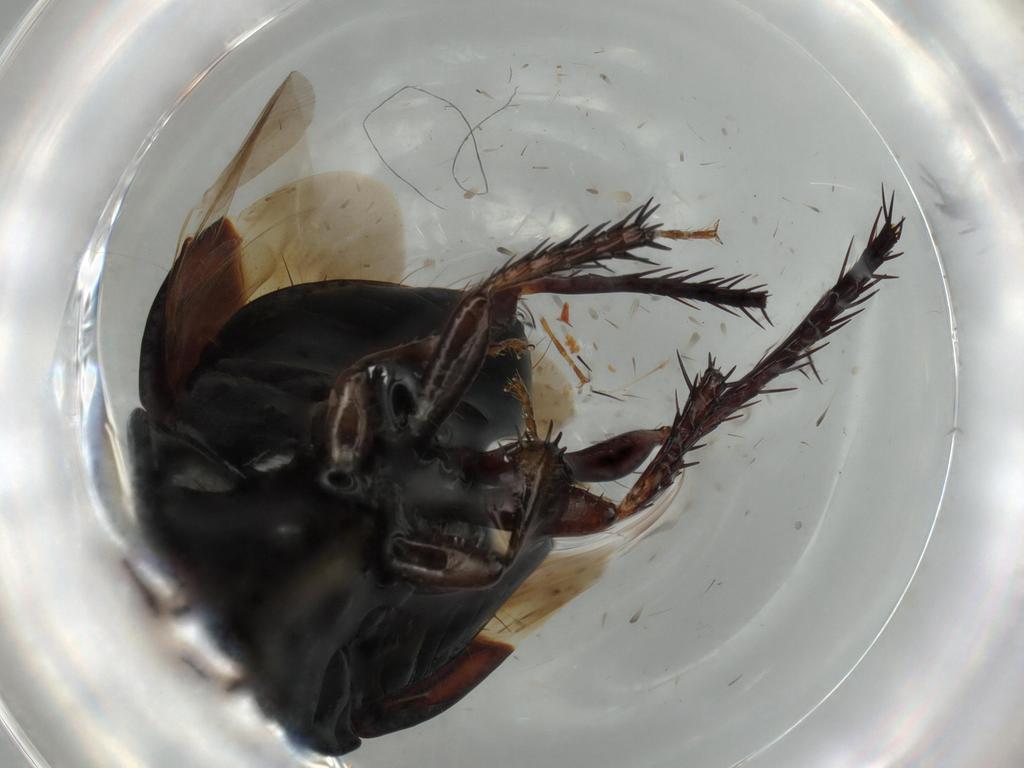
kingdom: Animalia
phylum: Arthropoda
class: Insecta
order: Hemiptera
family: Cydnidae
